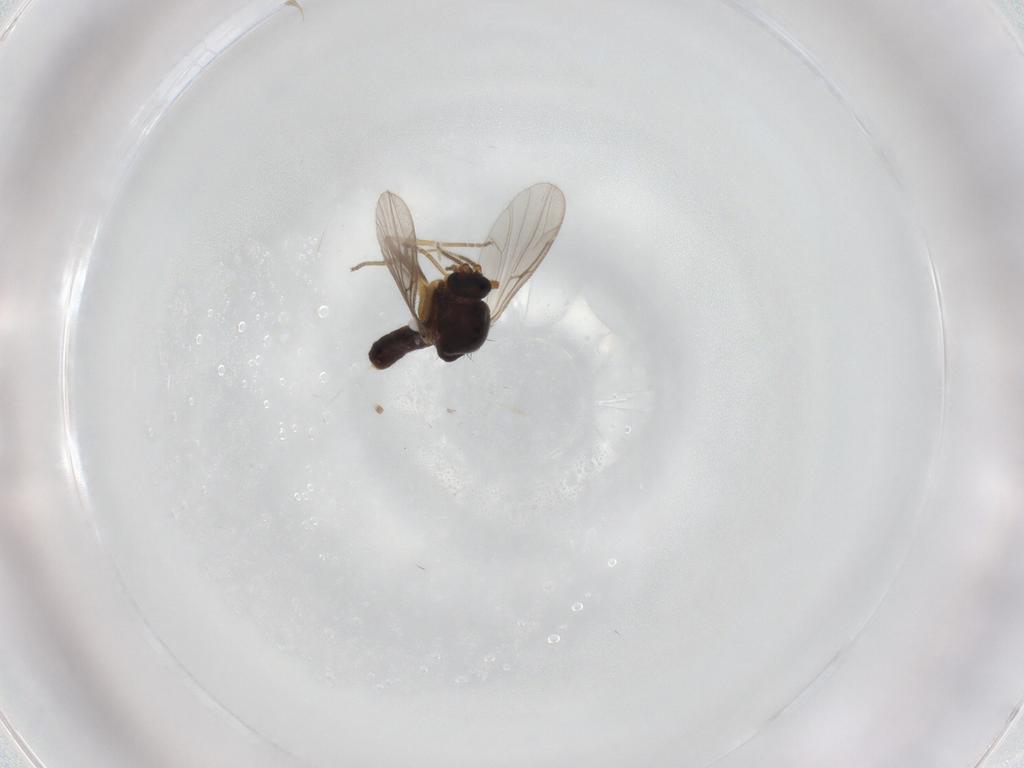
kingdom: Animalia
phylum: Arthropoda
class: Insecta
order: Diptera
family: Ceratopogonidae
